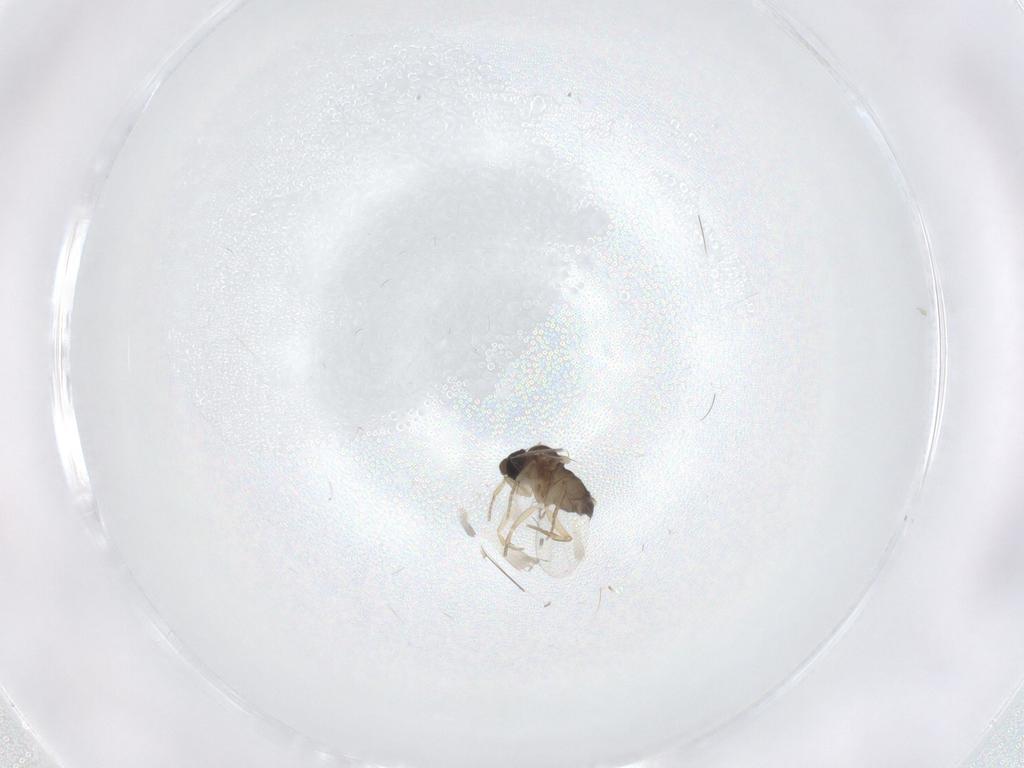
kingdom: Animalia
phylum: Arthropoda
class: Insecta
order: Diptera
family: Phoridae
